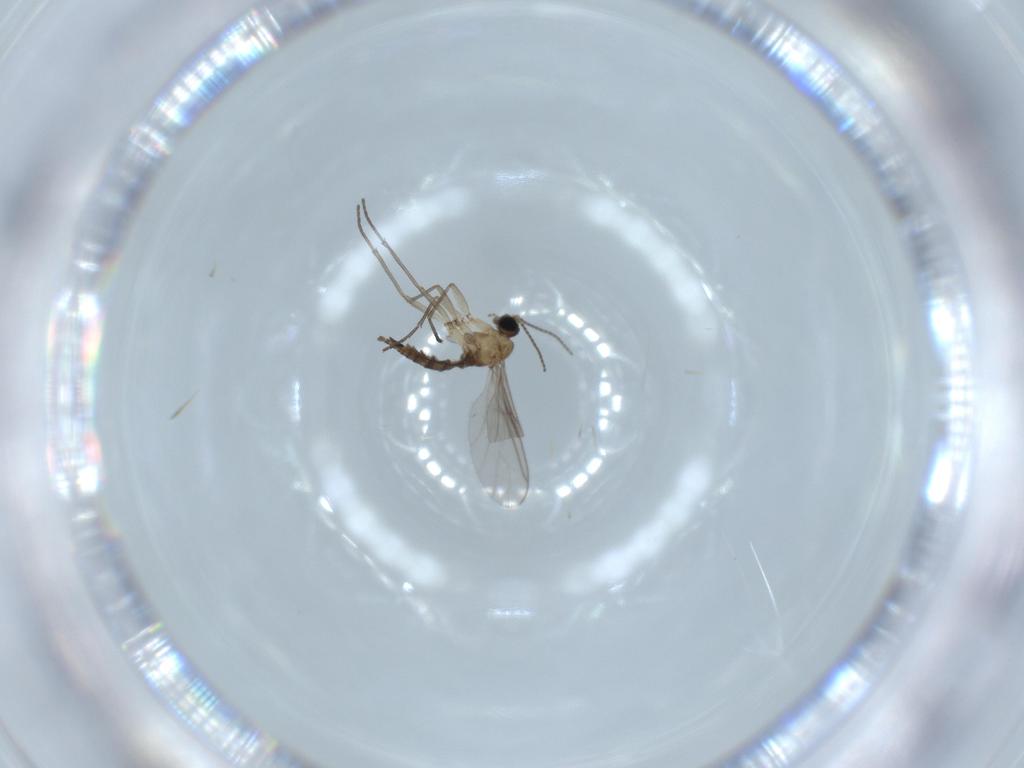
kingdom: Animalia
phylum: Arthropoda
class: Insecta
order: Diptera
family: Sciaridae
